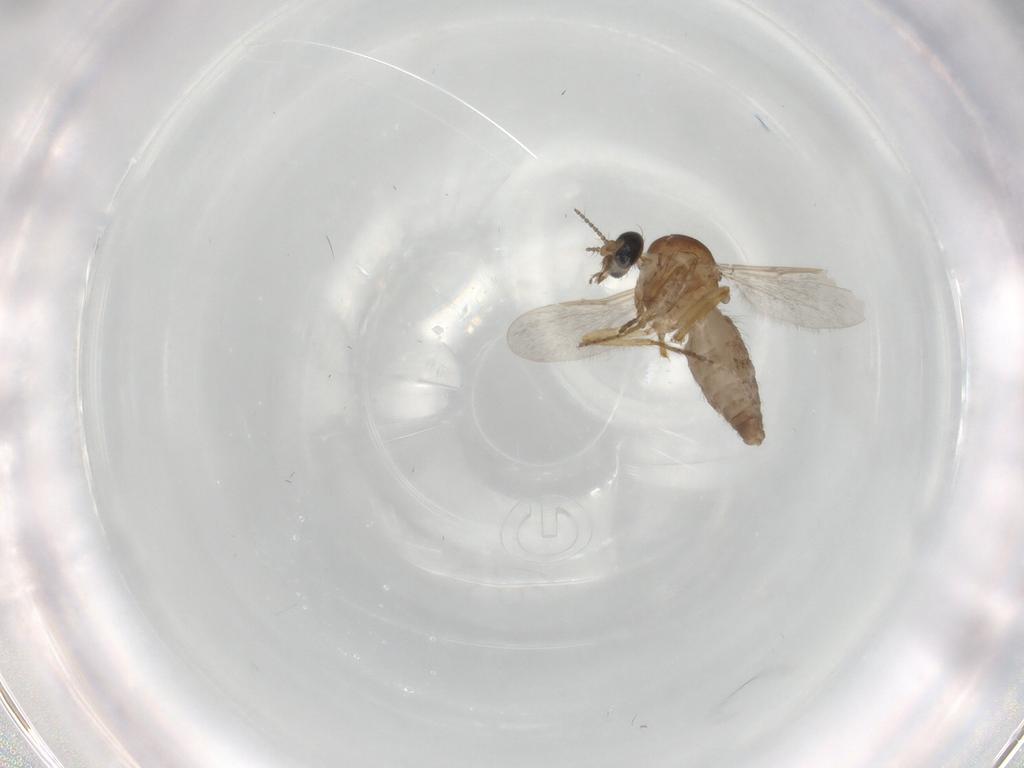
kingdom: Animalia
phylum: Arthropoda
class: Insecta
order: Diptera
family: Ceratopogonidae
